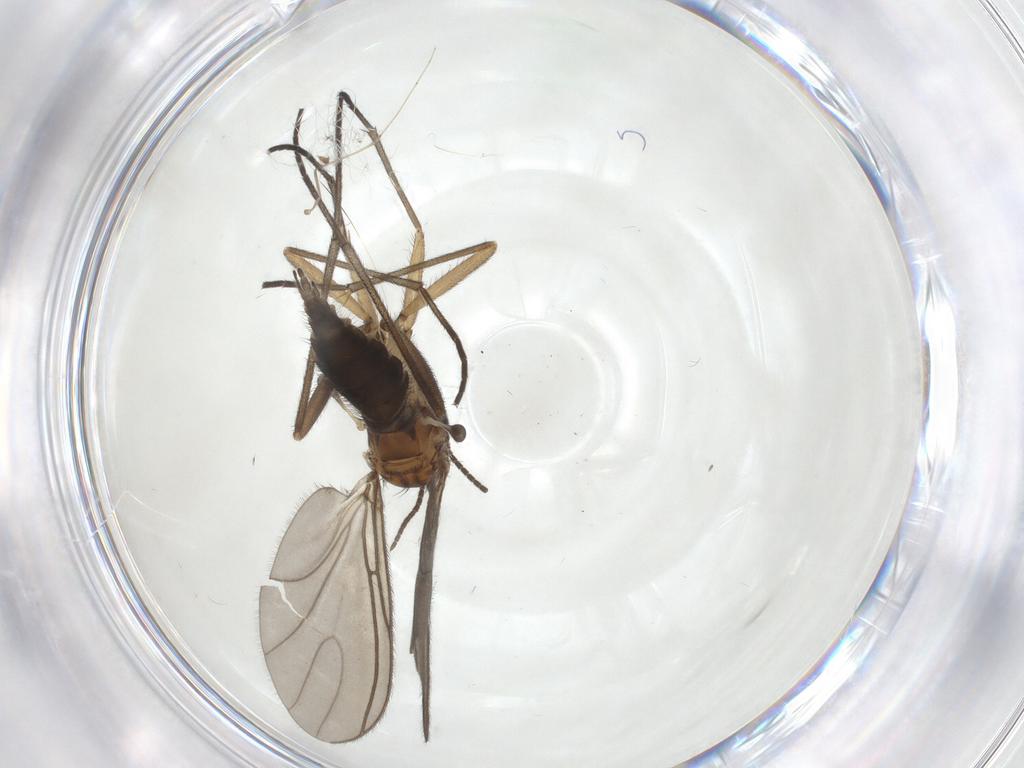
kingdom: Animalia
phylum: Arthropoda
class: Insecta
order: Diptera
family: Sciaridae
